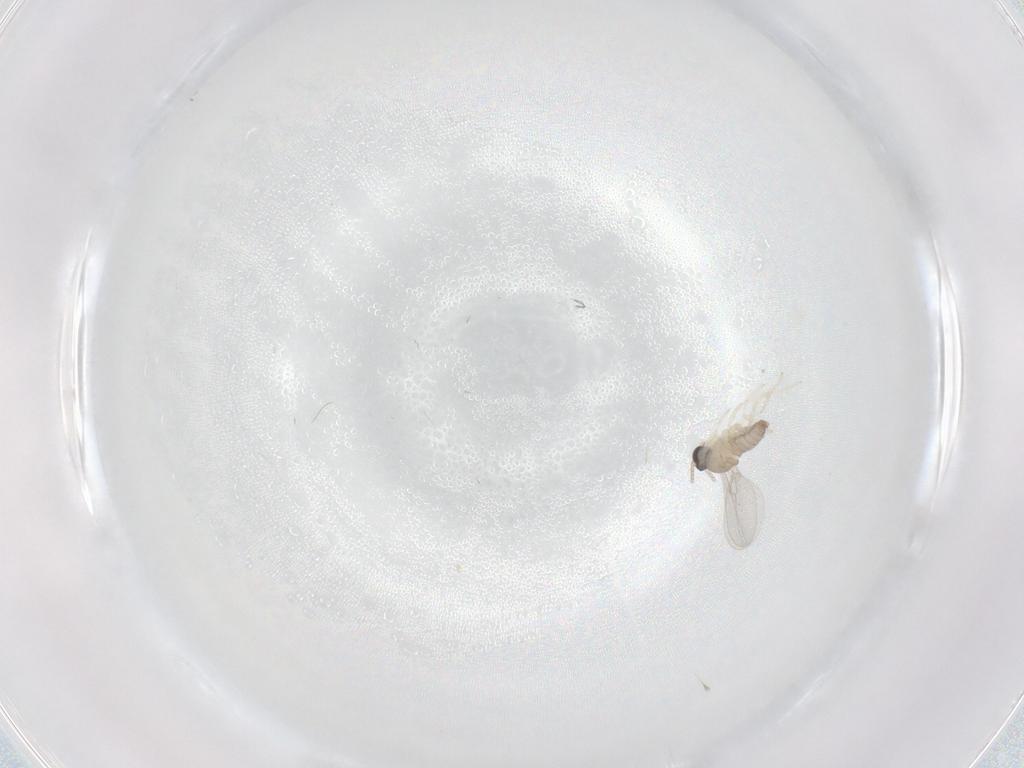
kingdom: Animalia
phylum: Arthropoda
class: Insecta
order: Diptera
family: Cecidomyiidae
